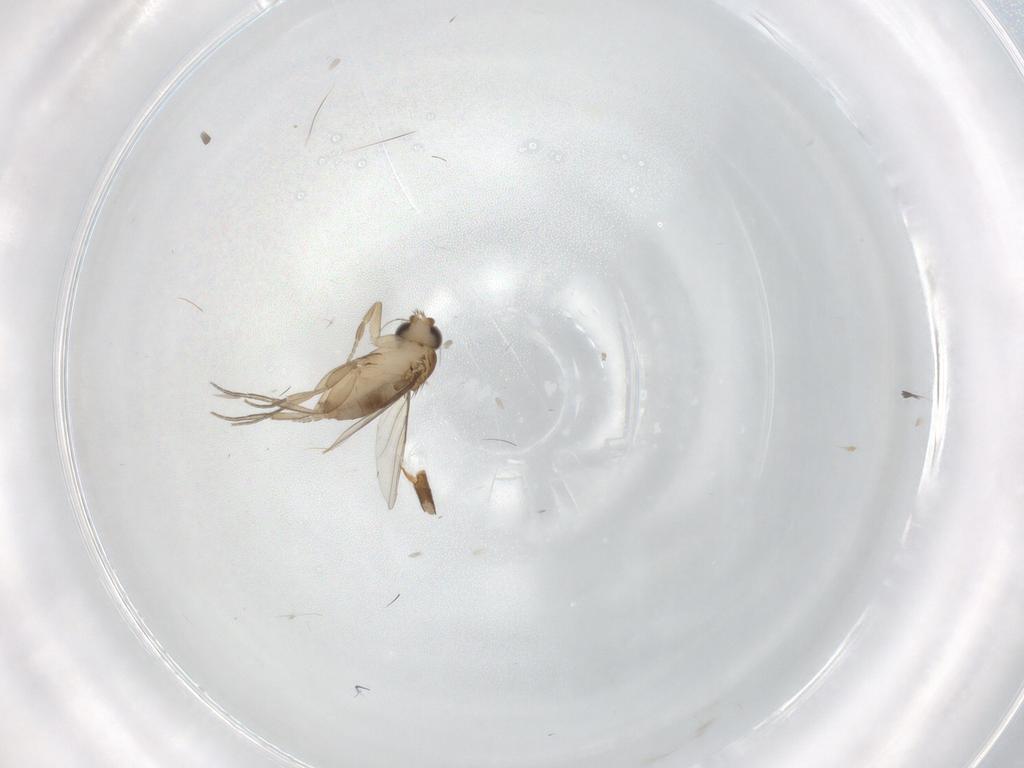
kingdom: Animalia
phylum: Arthropoda
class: Insecta
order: Diptera
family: Phoridae
